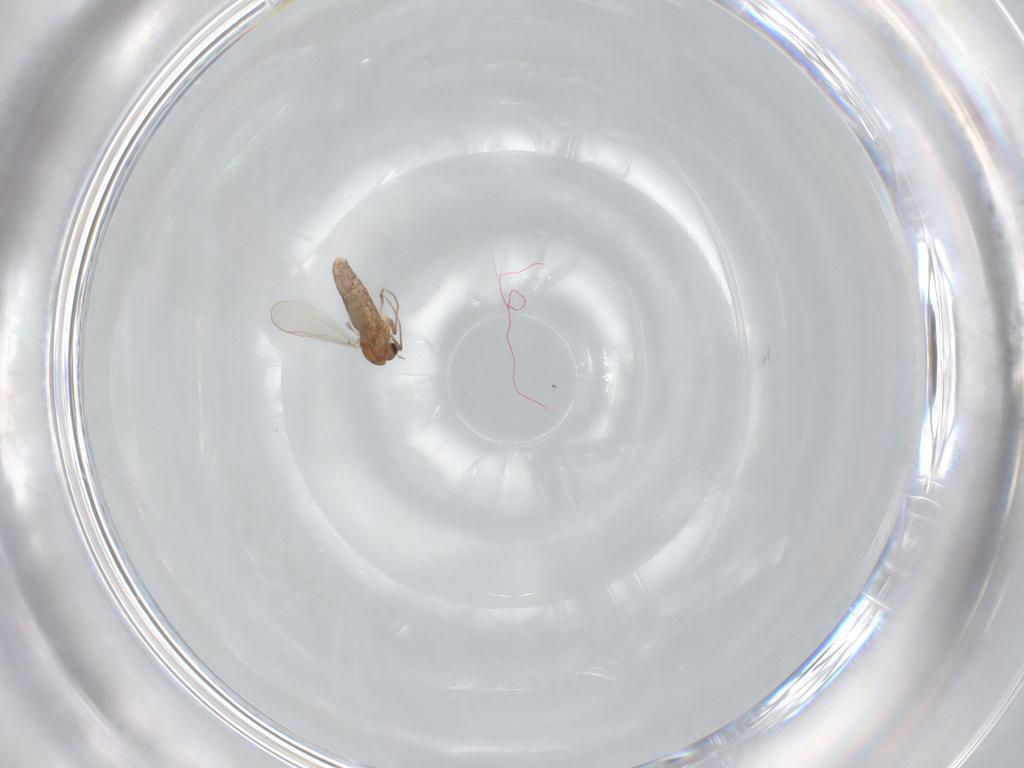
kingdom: Animalia
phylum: Arthropoda
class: Insecta
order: Diptera
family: Chironomidae
